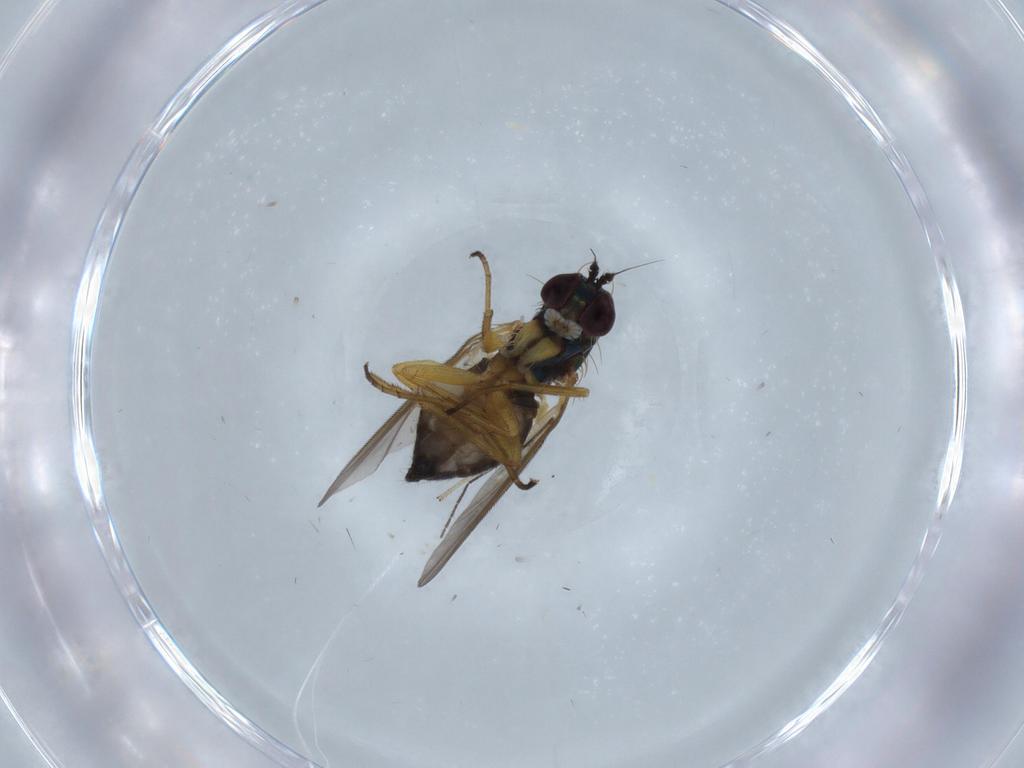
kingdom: Animalia
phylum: Arthropoda
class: Insecta
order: Diptera
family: Dolichopodidae
